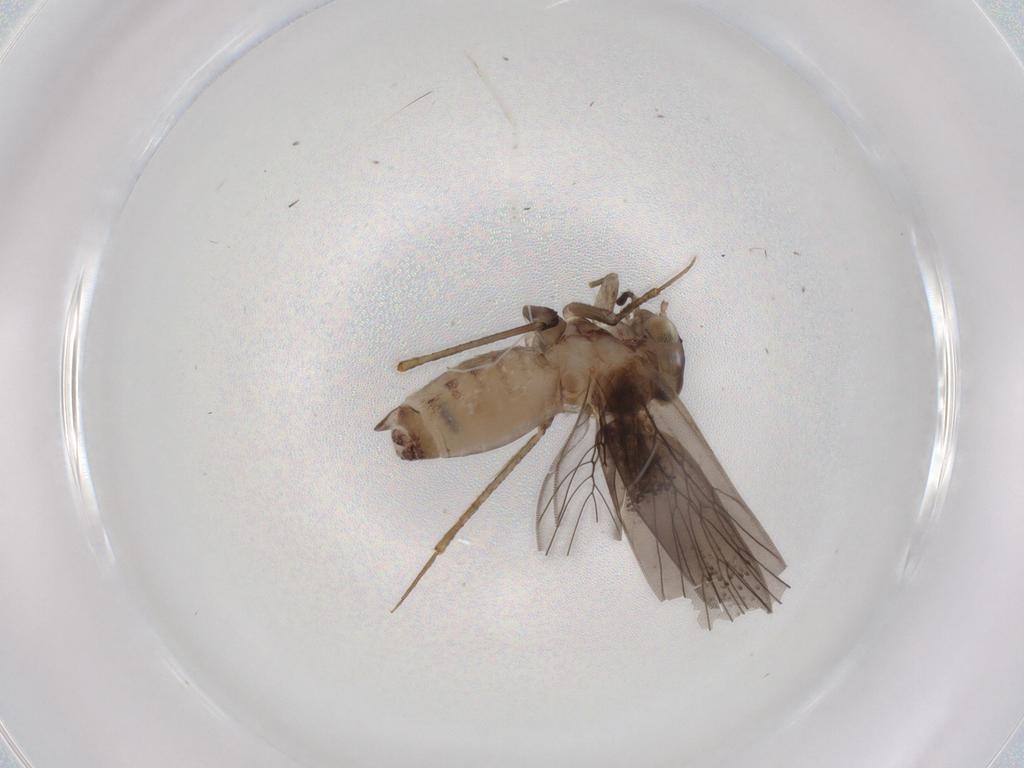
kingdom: Animalia
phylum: Arthropoda
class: Insecta
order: Psocodea
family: Lepidopsocidae
